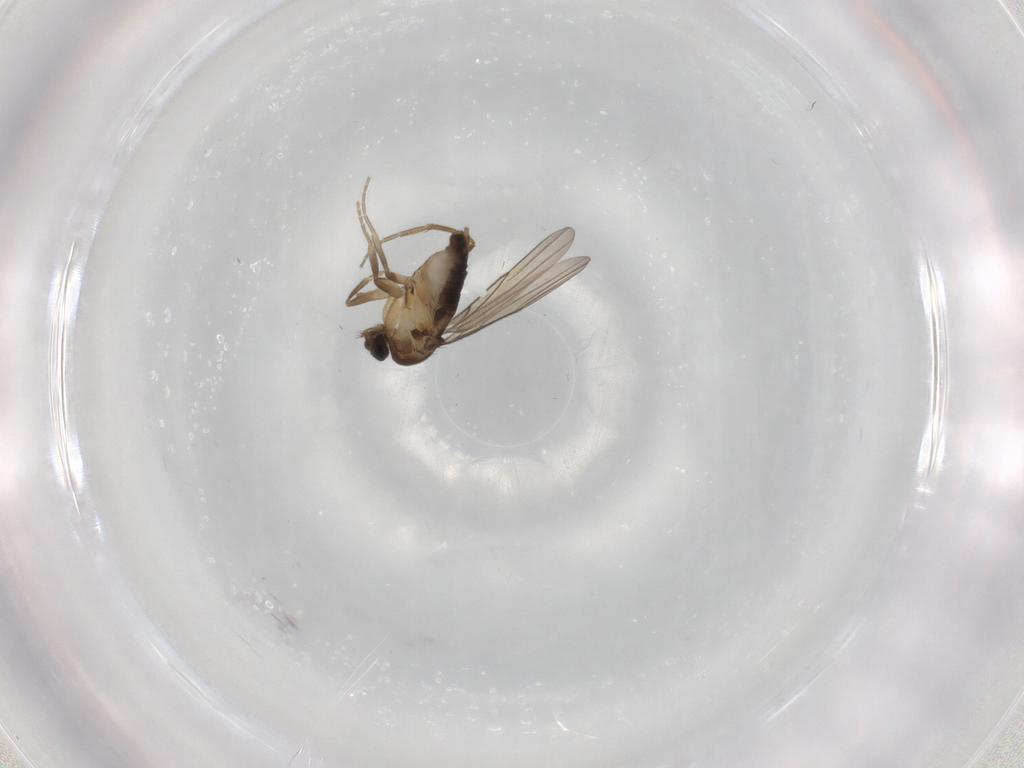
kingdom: Animalia
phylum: Arthropoda
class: Insecta
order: Diptera
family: Phoridae
